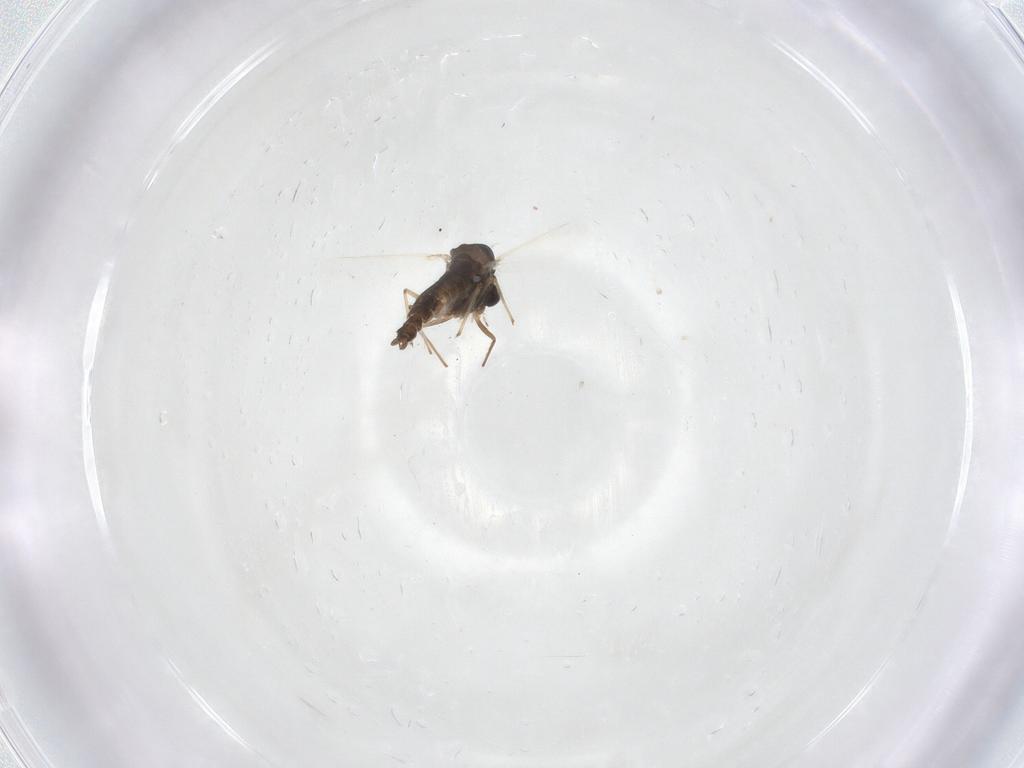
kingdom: Animalia
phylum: Arthropoda
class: Insecta
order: Diptera
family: Chironomidae
